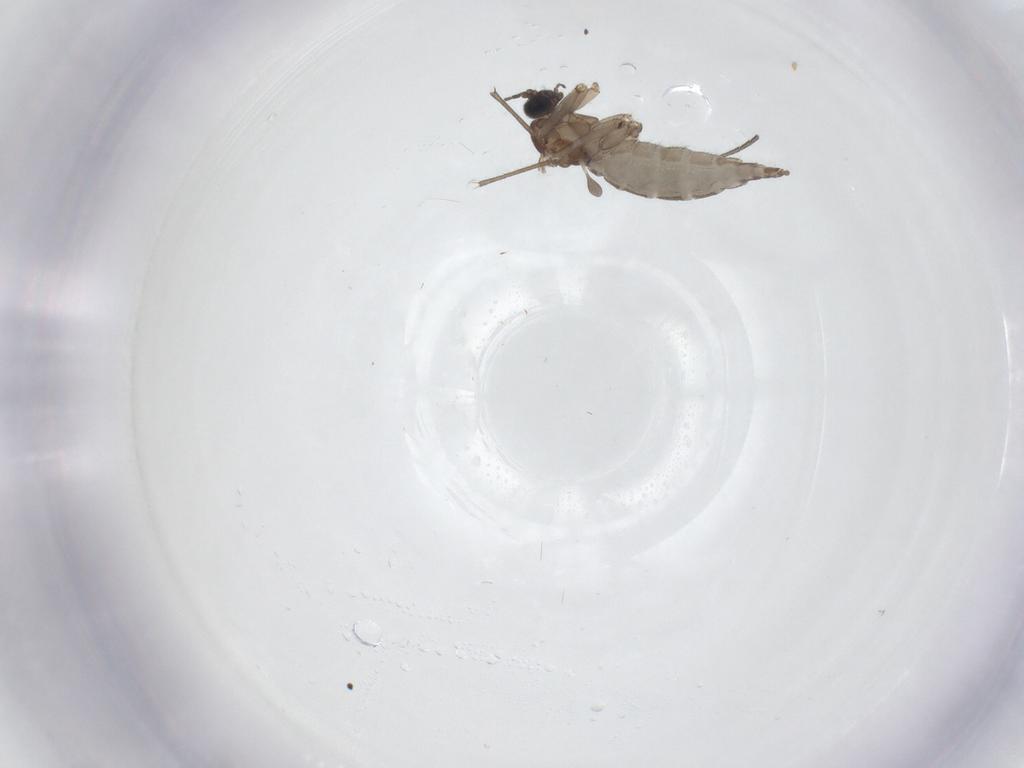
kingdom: Animalia
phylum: Arthropoda
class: Insecta
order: Diptera
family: Sciaridae
